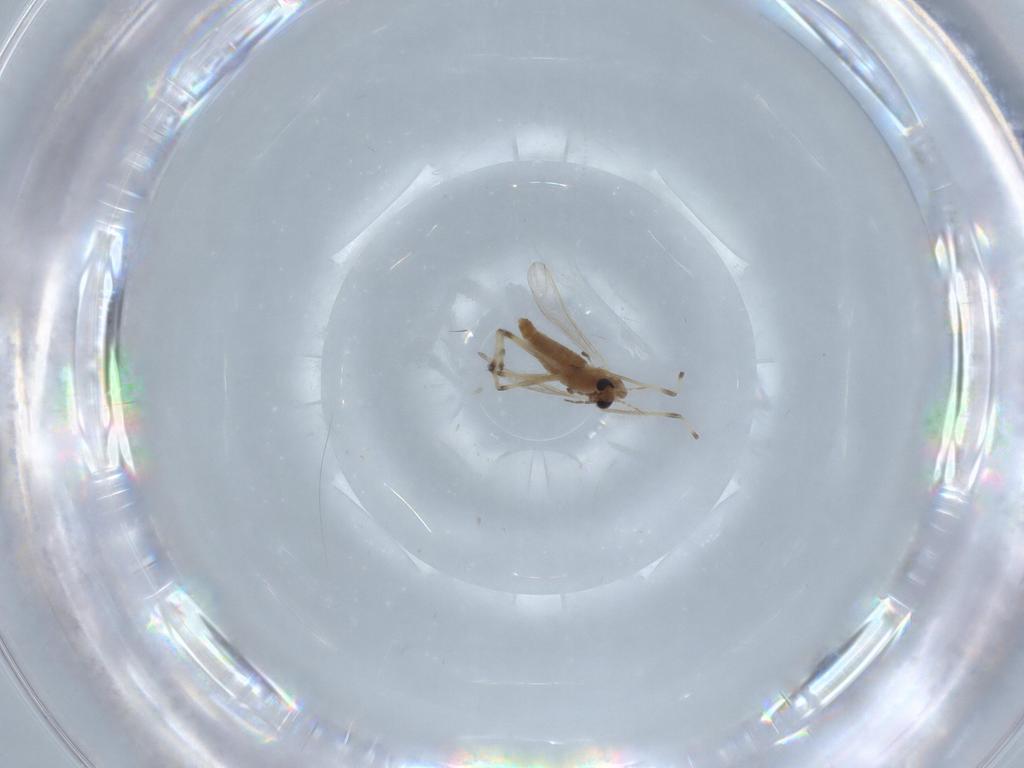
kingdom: Animalia
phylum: Arthropoda
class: Insecta
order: Diptera
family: Chironomidae
